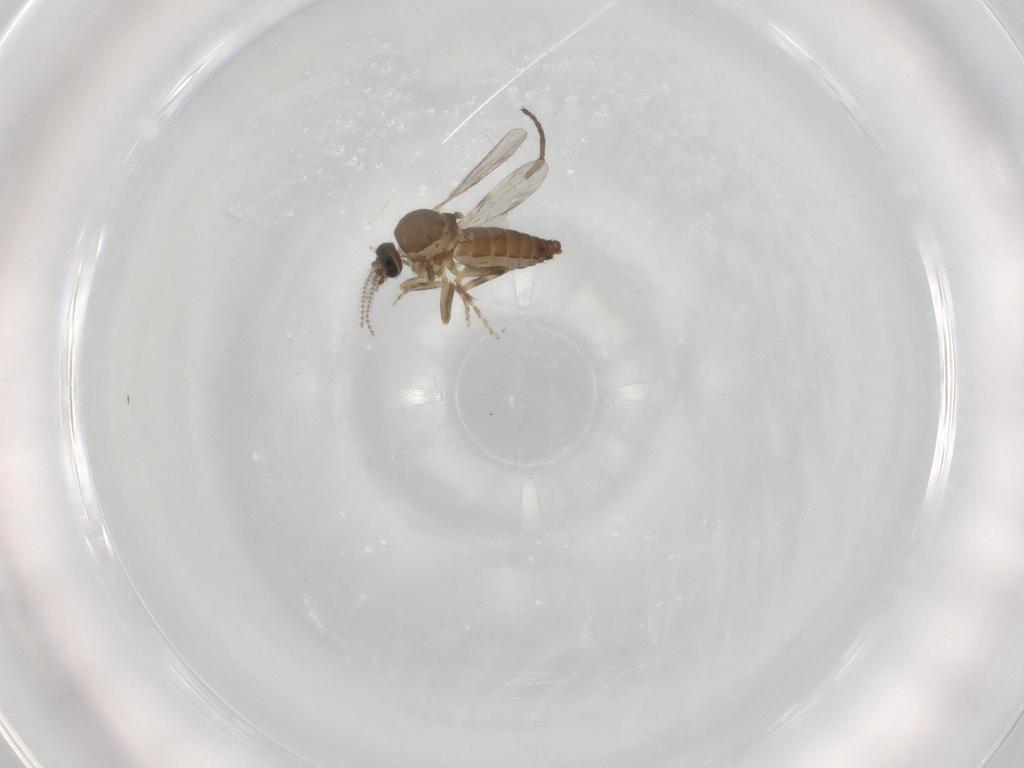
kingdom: Animalia
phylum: Arthropoda
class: Insecta
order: Diptera
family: Ceratopogonidae
